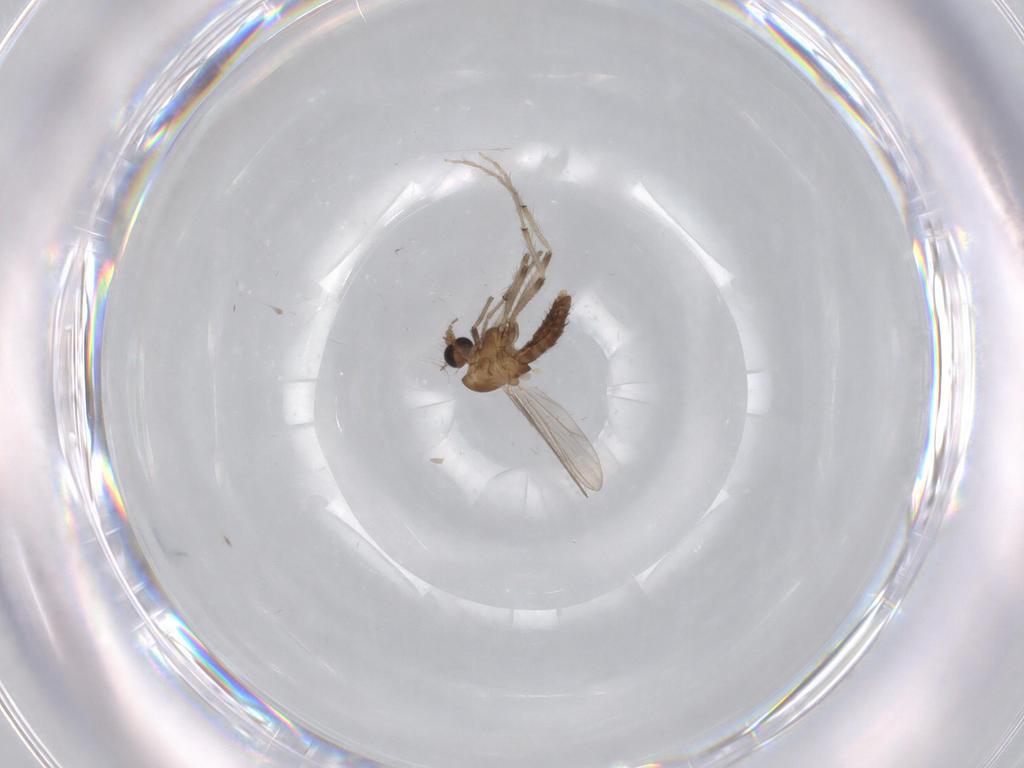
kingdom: Animalia
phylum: Arthropoda
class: Insecta
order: Diptera
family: Chironomidae
